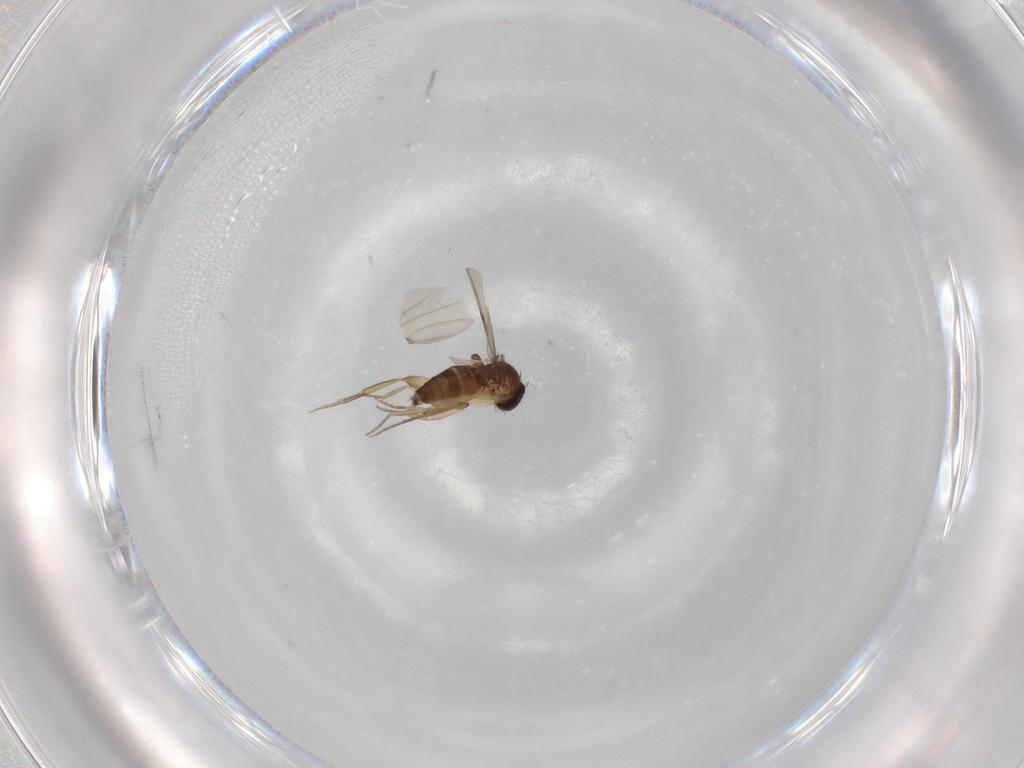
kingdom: Animalia
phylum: Arthropoda
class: Insecta
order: Diptera
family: Phoridae
